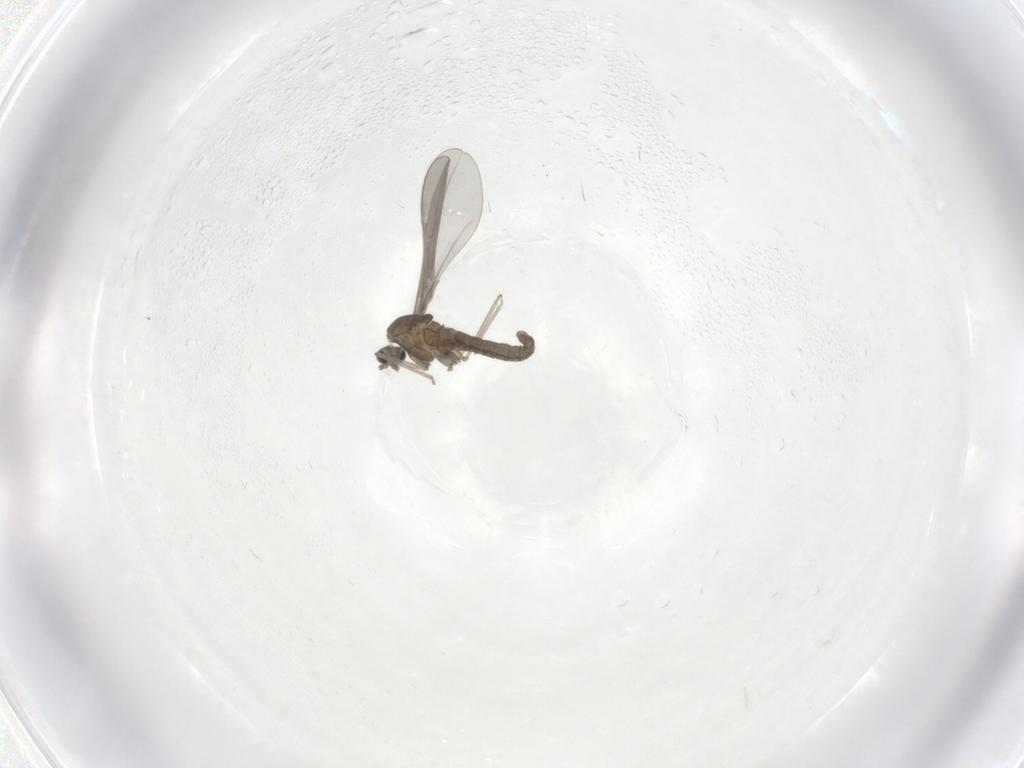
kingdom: Animalia
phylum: Arthropoda
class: Insecta
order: Diptera
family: Cecidomyiidae
